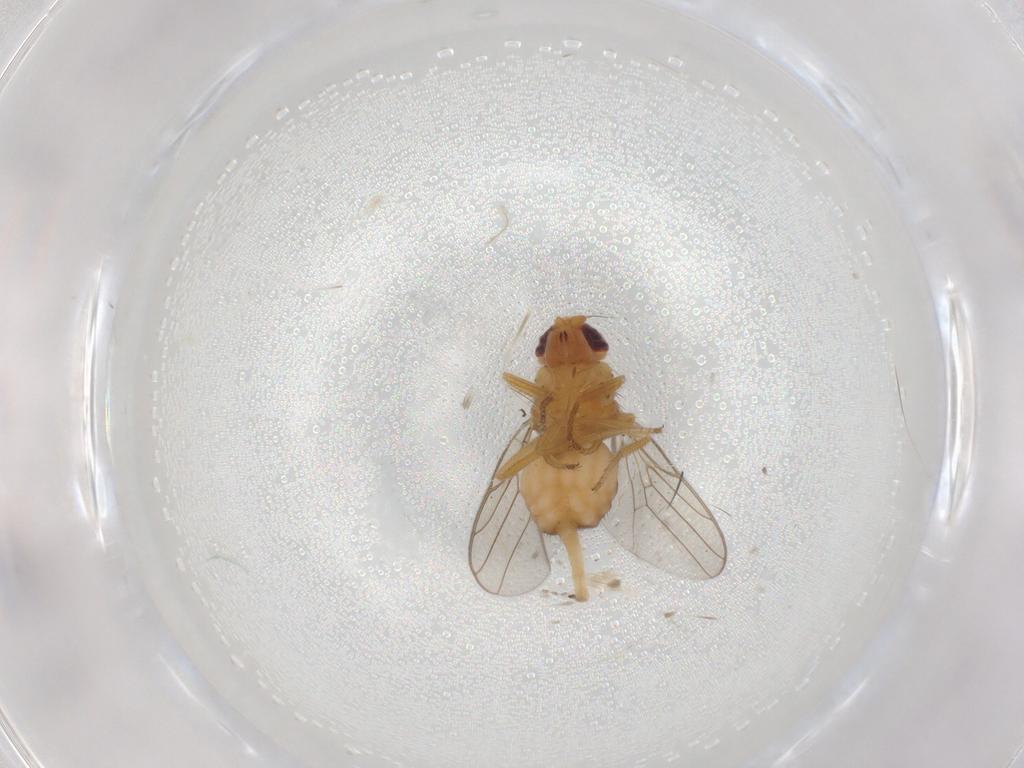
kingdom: Animalia
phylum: Arthropoda
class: Insecta
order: Diptera
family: Chloropidae
